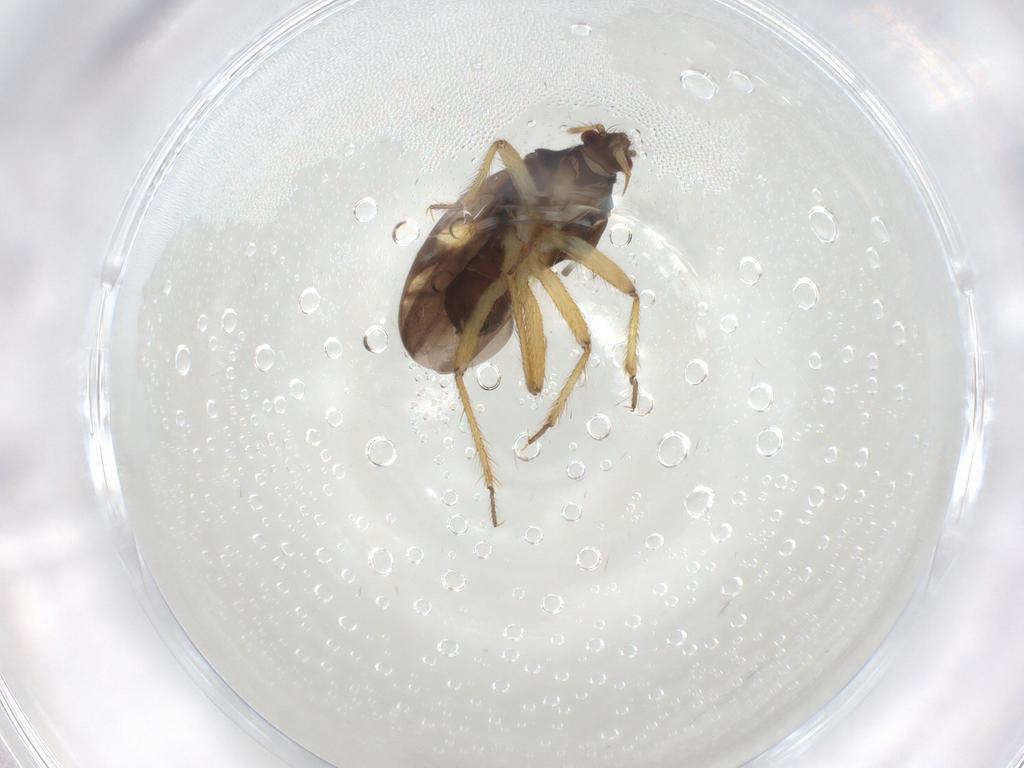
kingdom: Animalia
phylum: Arthropoda
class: Insecta
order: Hemiptera
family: Ceratocombidae
